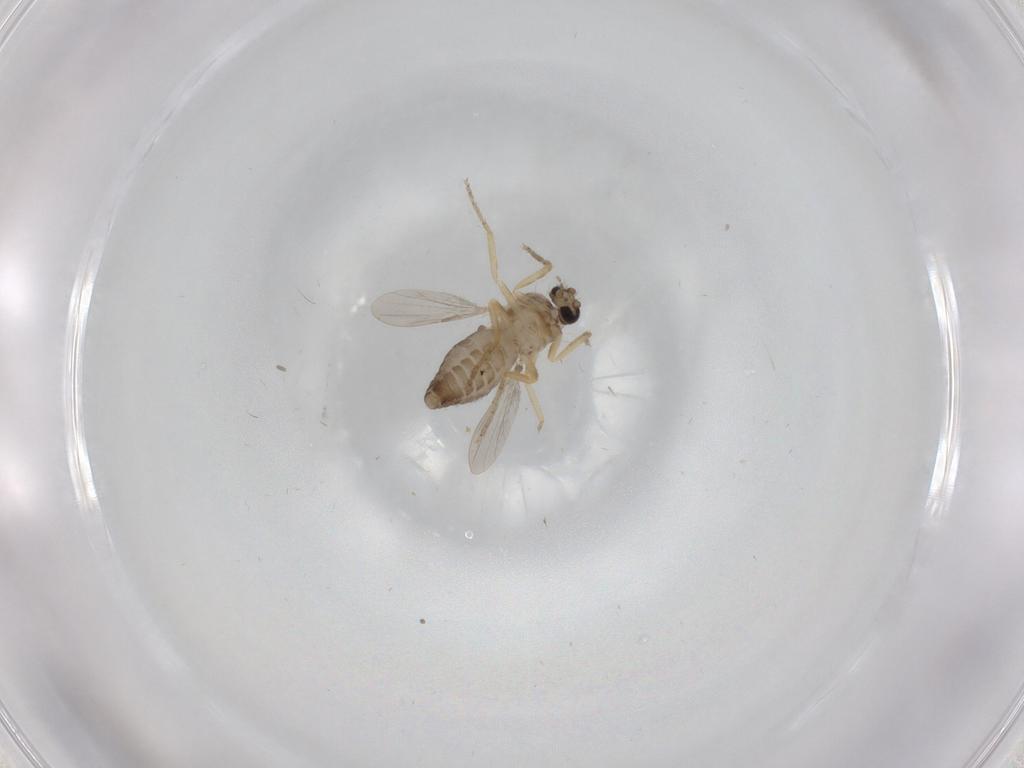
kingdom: Animalia
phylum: Arthropoda
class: Insecta
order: Diptera
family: Ceratopogonidae
